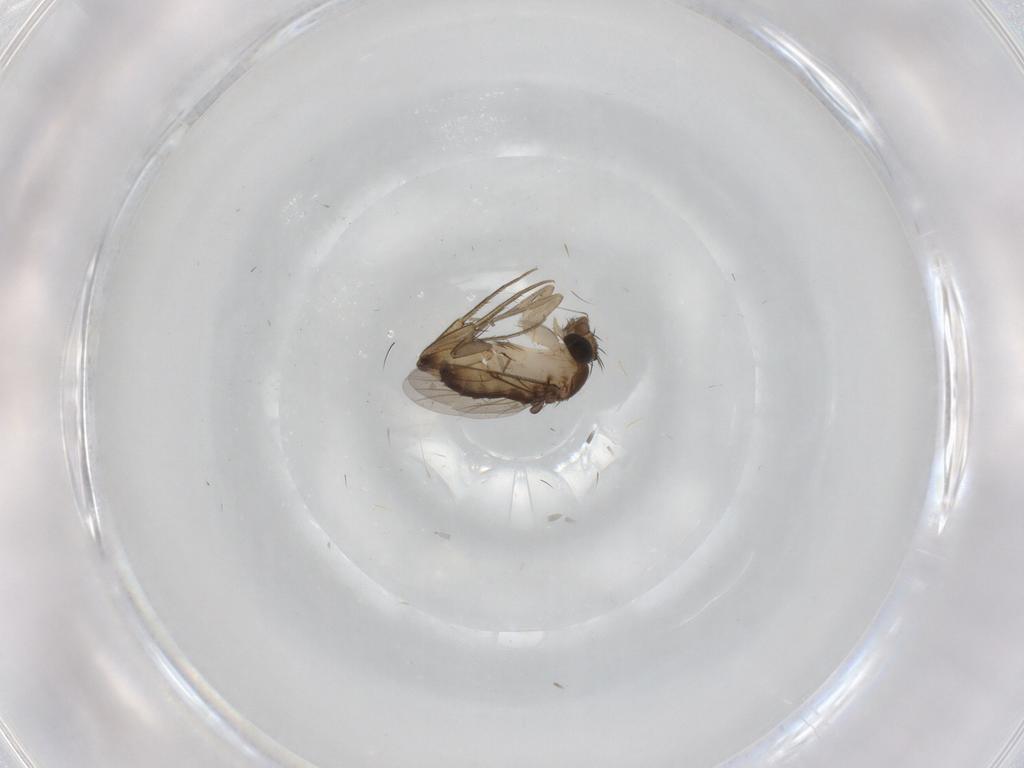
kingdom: Animalia
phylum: Arthropoda
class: Insecta
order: Diptera
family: Phoridae
